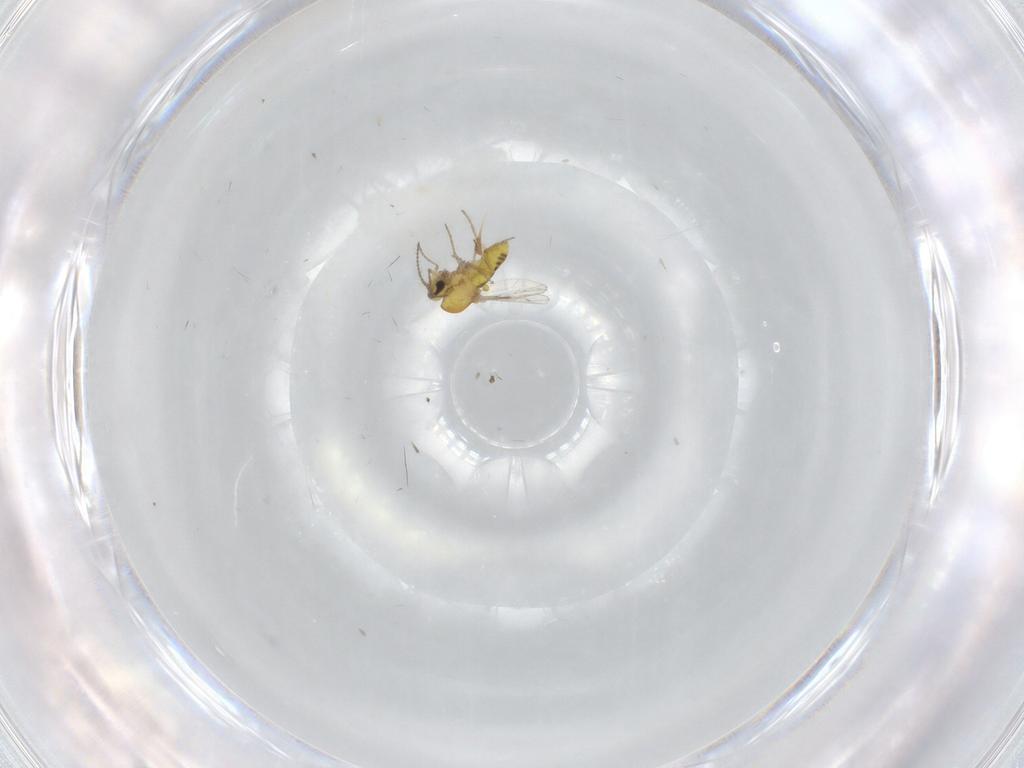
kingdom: Animalia
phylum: Arthropoda
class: Insecta
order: Diptera
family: Ceratopogonidae
